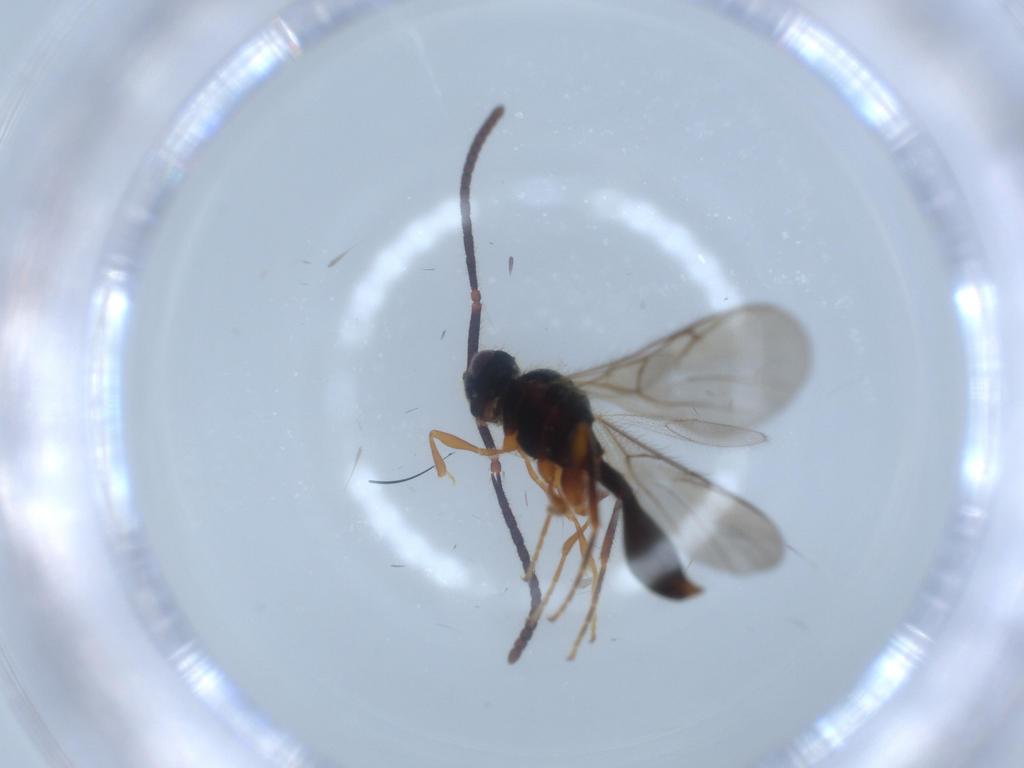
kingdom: Animalia
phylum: Arthropoda
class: Insecta
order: Hymenoptera
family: Diapriidae
